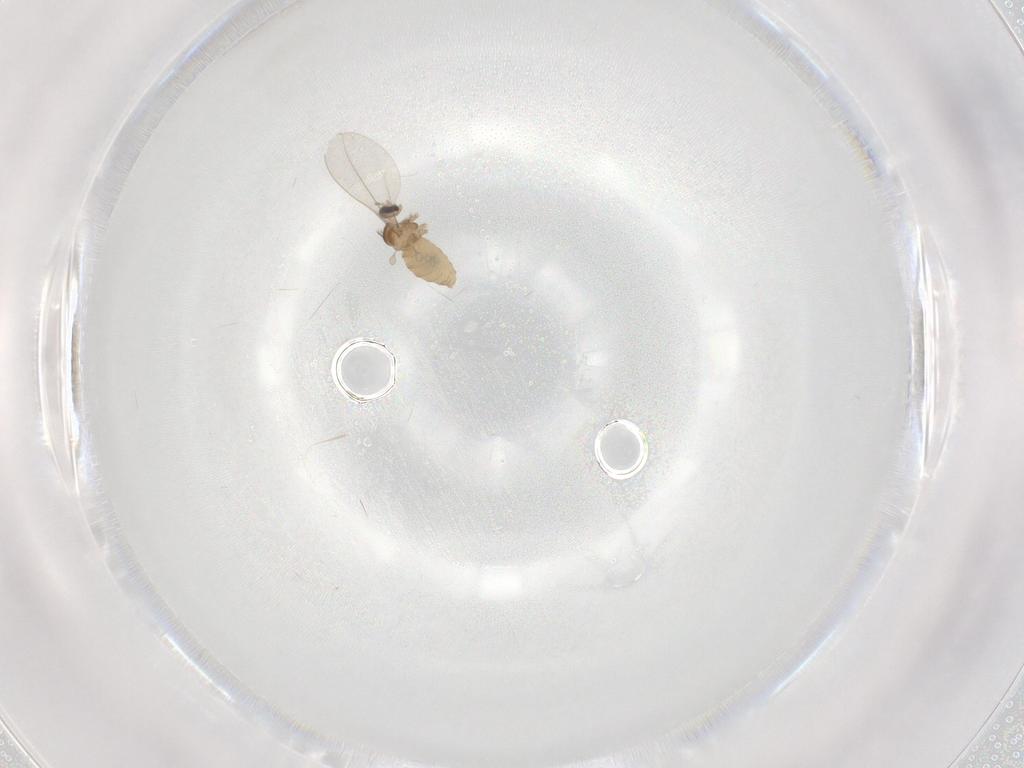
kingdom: Animalia
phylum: Arthropoda
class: Insecta
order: Diptera
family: Cecidomyiidae
